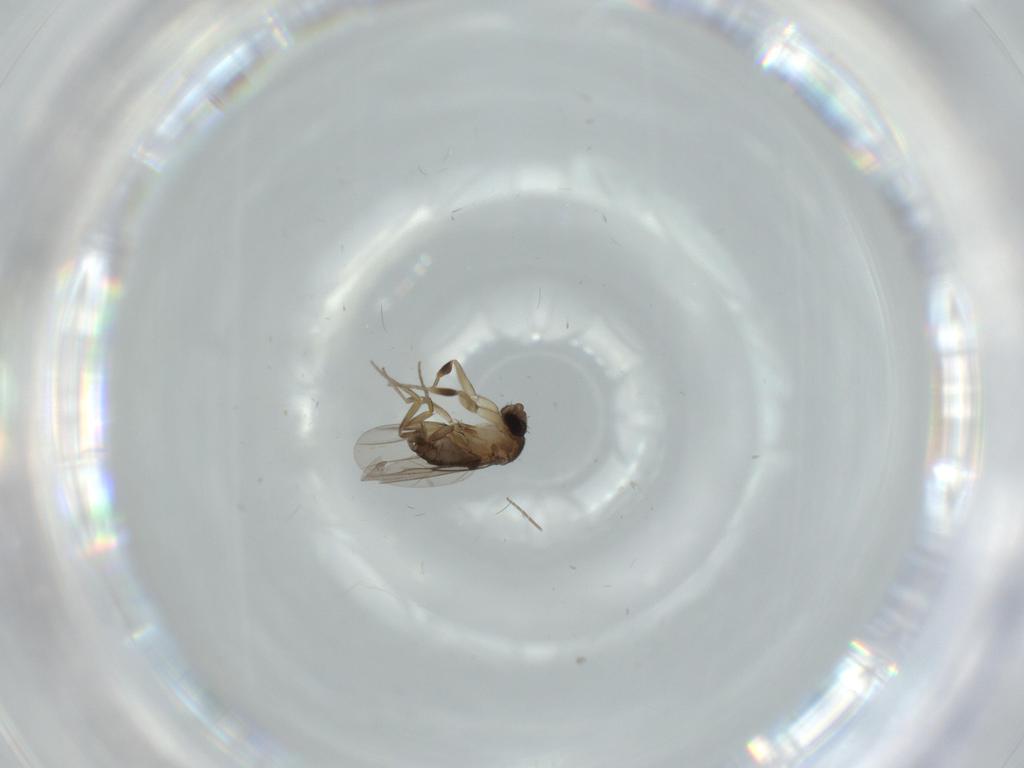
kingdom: Animalia
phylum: Arthropoda
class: Insecta
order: Diptera
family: Phoridae
